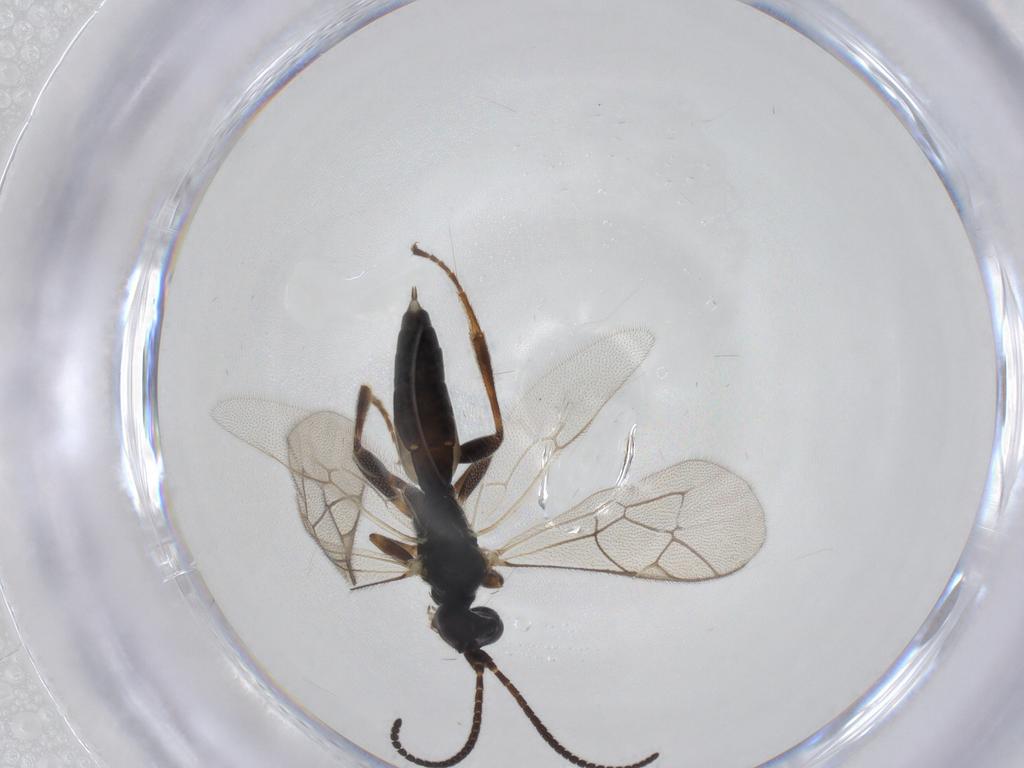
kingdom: Animalia
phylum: Arthropoda
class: Insecta
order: Hymenoptera
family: Ichneumonidae
